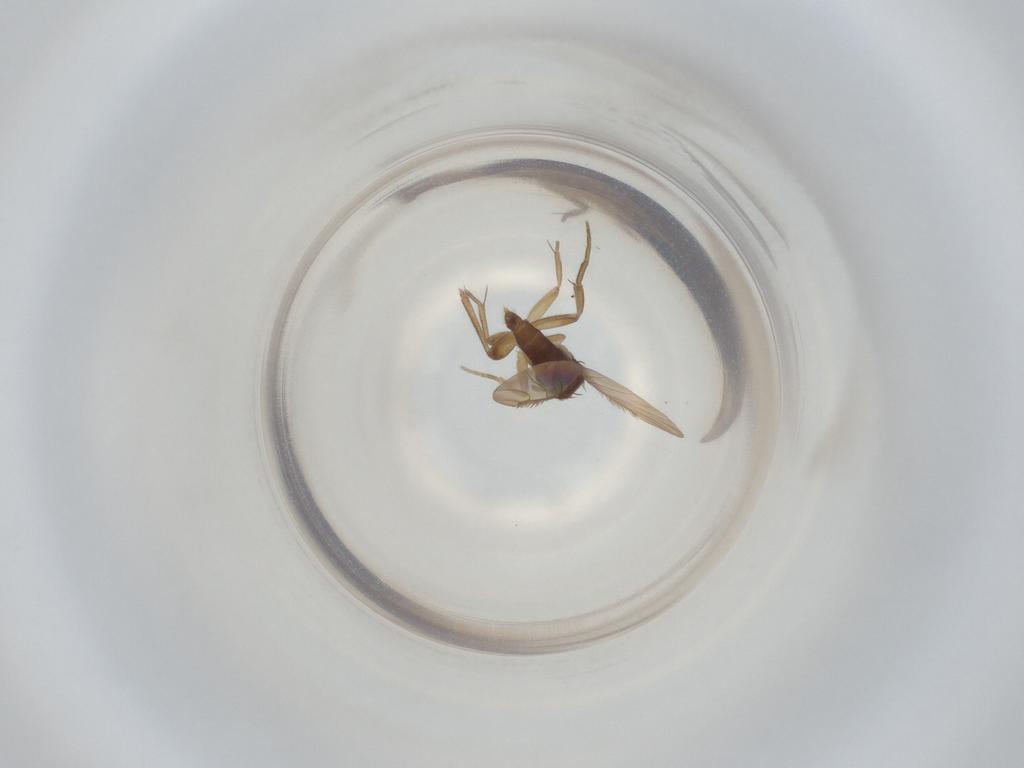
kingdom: Animalia
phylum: Arthropoda
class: Insecta
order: Diptera
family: Phoridae
